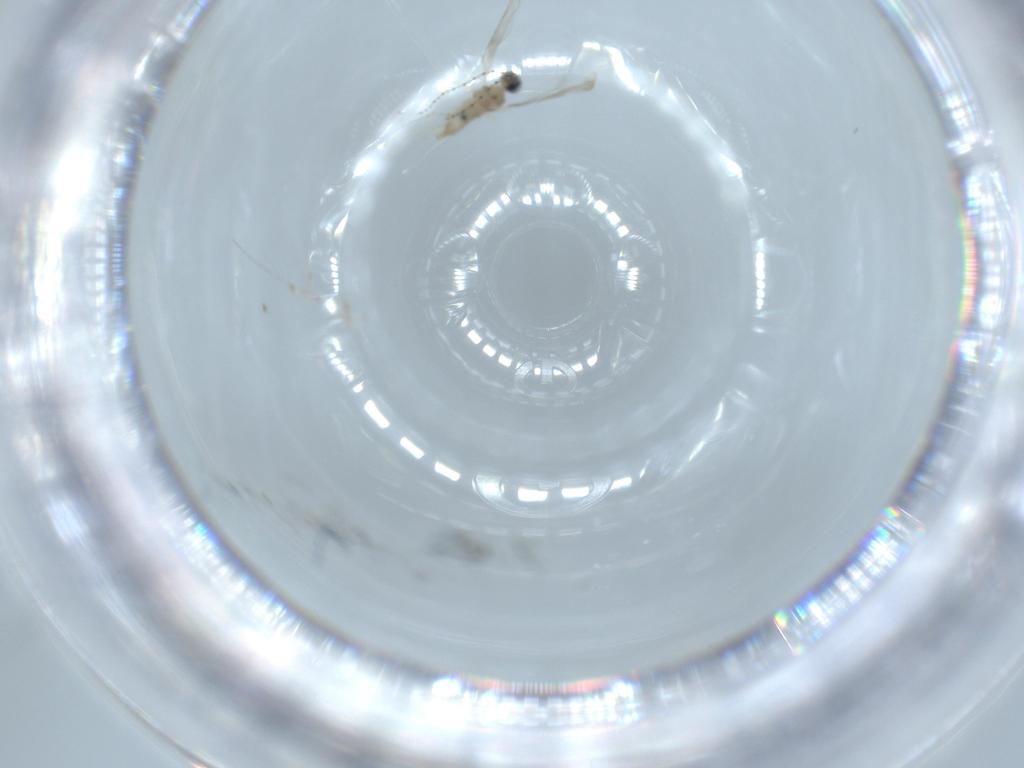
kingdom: Animalia
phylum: Arthropoda
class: Insecta
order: Diptera
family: Cecidomyiidae
